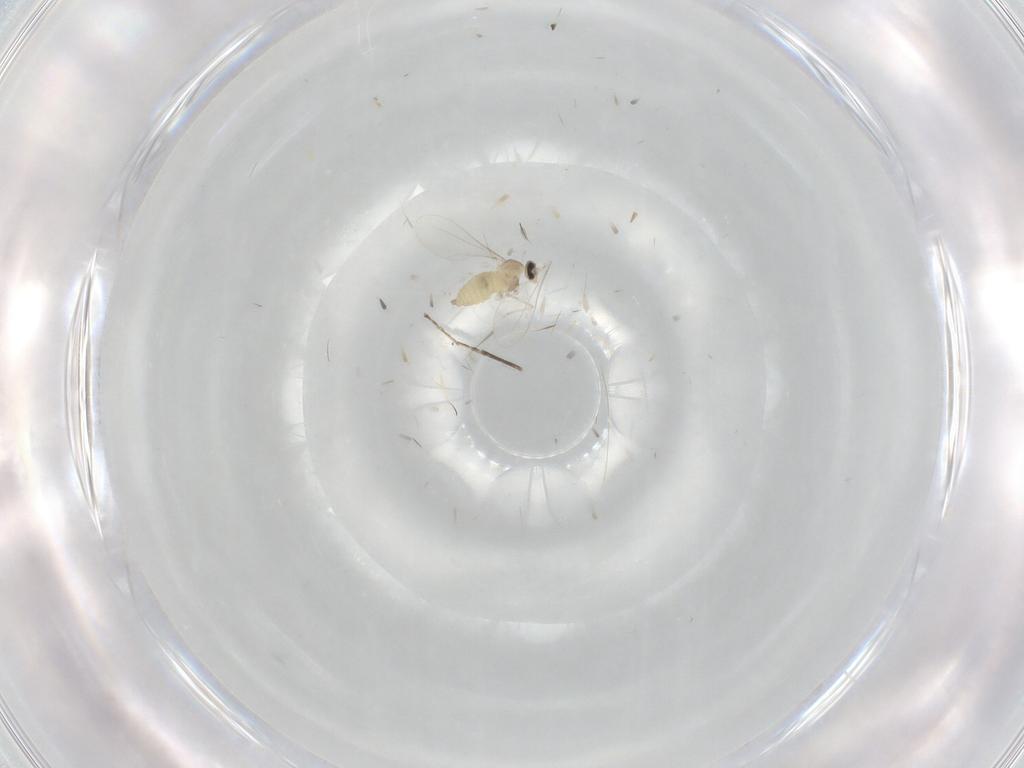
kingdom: Animalia
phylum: Arthropoda
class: Insecta
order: Diptera
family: Cecidomyiidae
